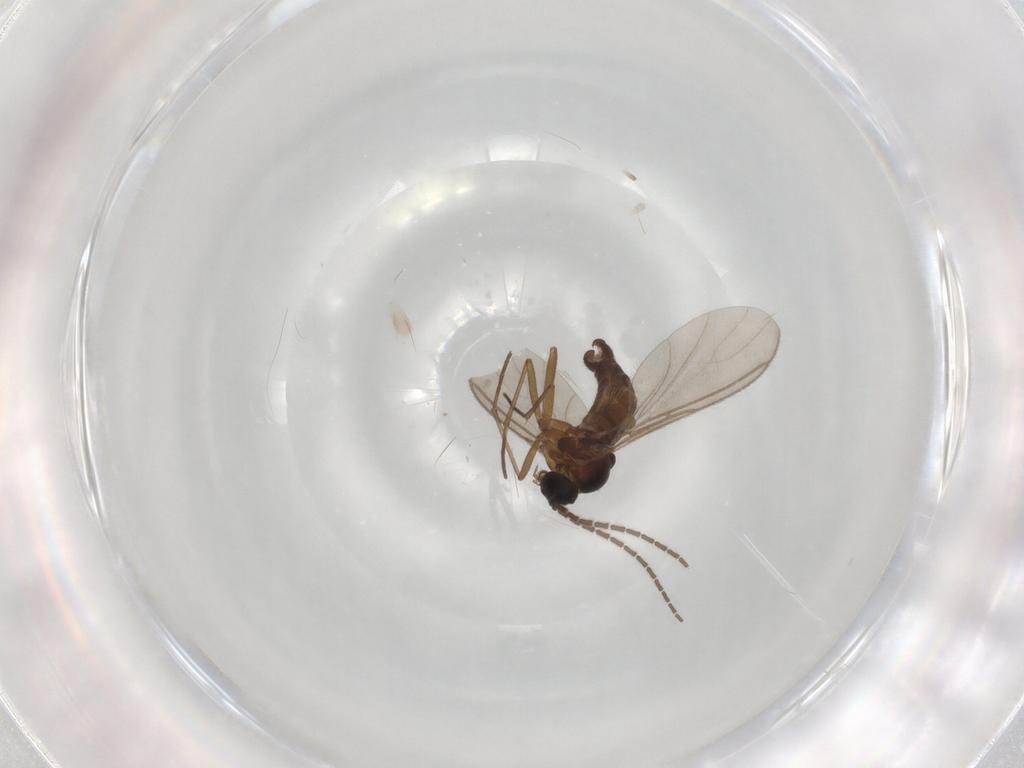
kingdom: Animalia
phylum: Arthropoda
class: Insecta
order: Diptera
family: Sciaridae
